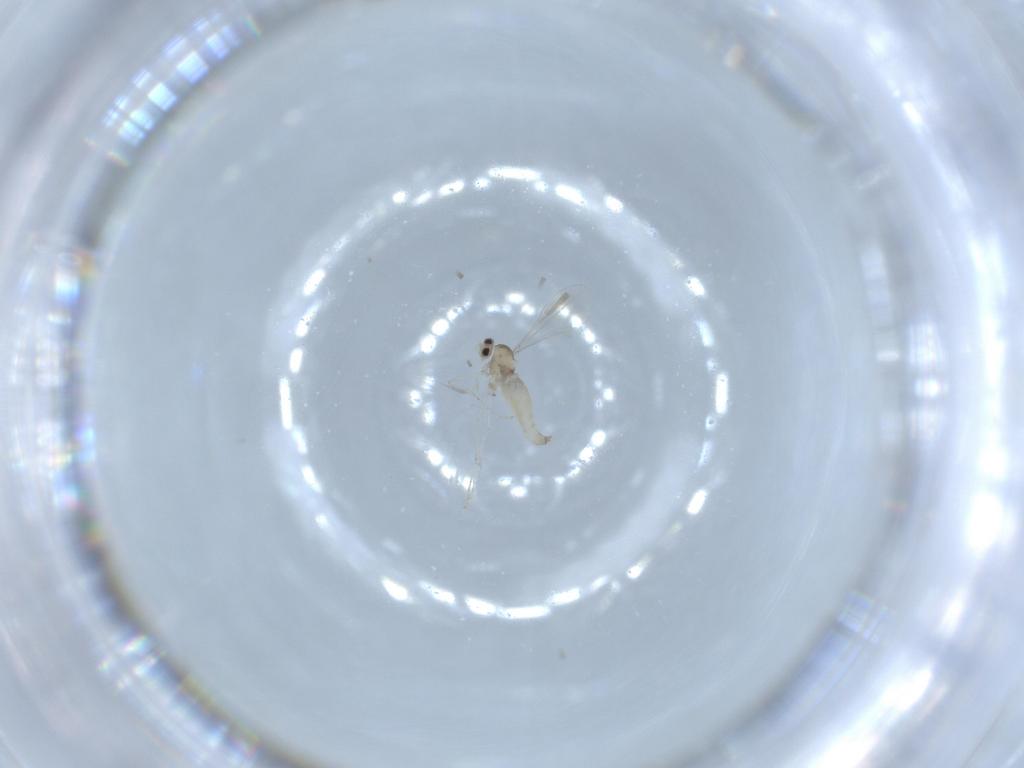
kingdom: Animalia
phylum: Arthropoda
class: Insecta
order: Diptera
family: Cecidomyiidae
